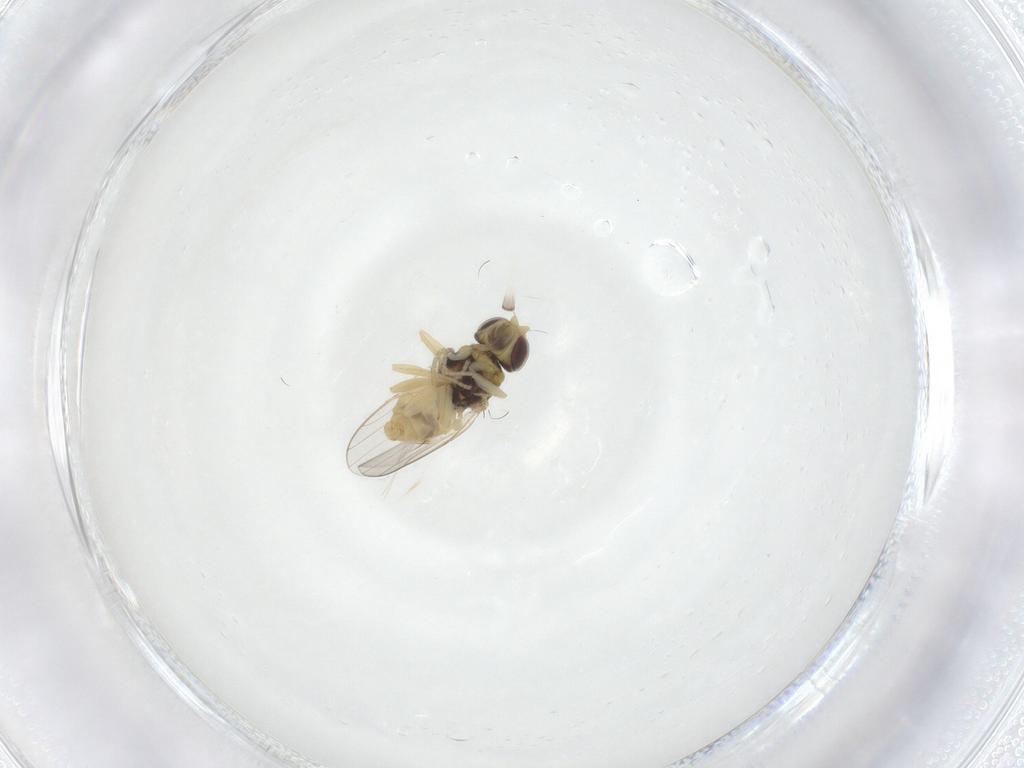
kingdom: Animalia
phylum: Arthropoda
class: Insecta
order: Diptera
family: Chloropidae
